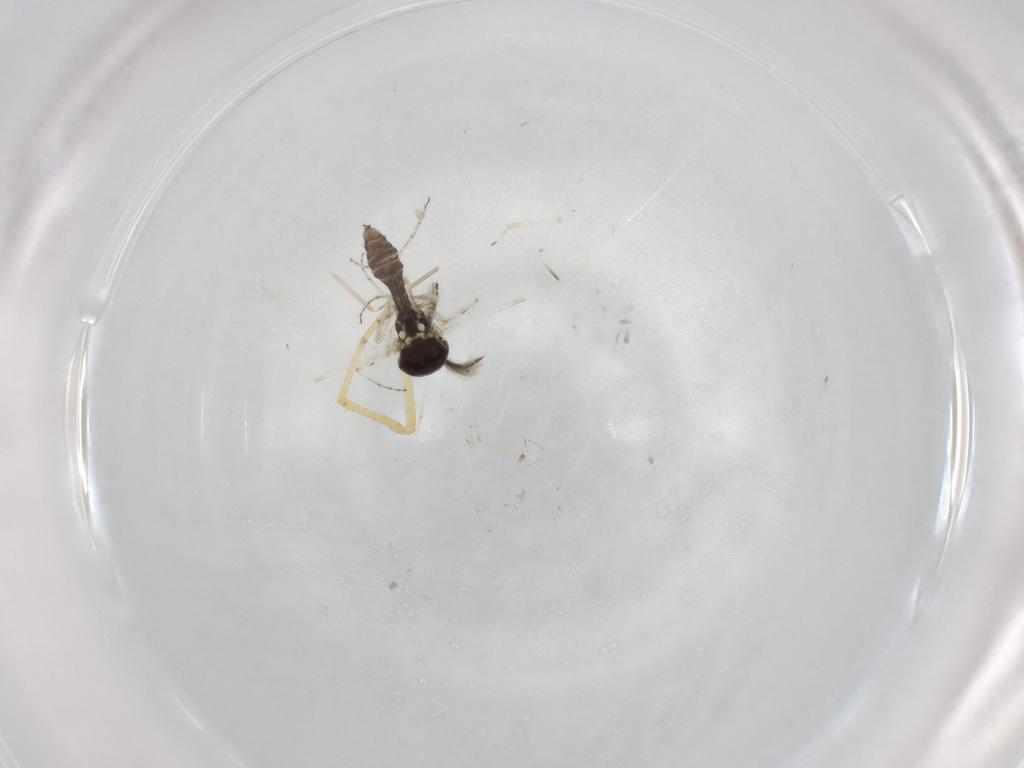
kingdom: Animalia
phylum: Arthropoda
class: Insecta
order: Diptera
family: Ceratopogonidae
